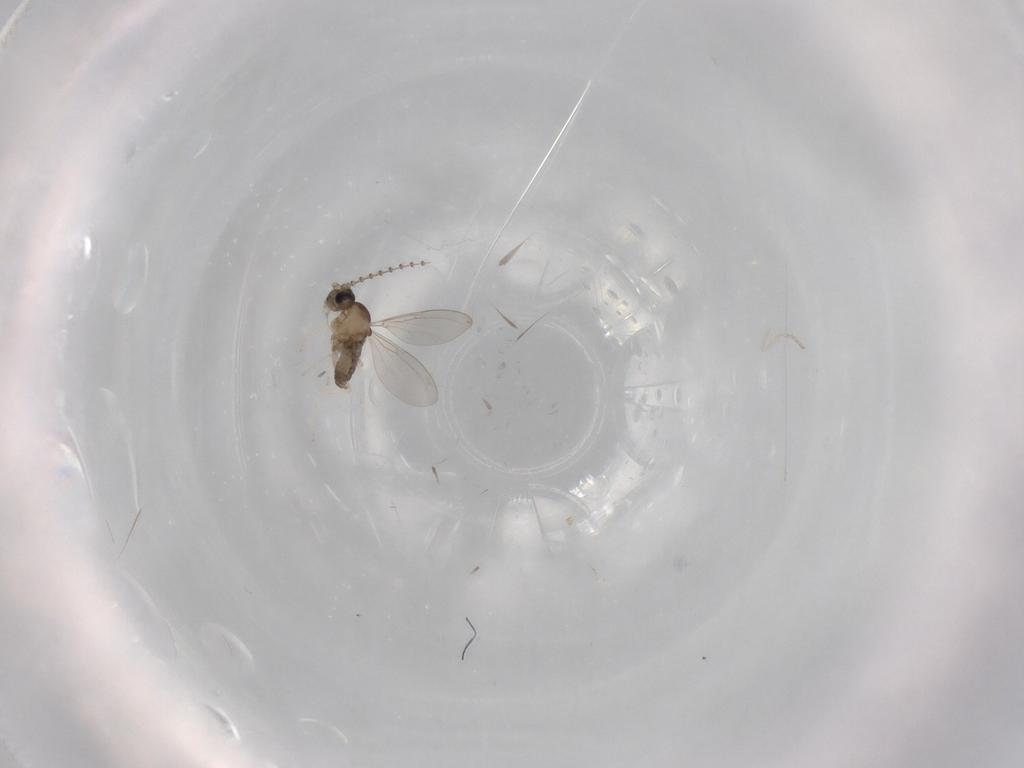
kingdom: Animalia
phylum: Arthropoda
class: Insecta
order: Diptera
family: Cecidomyiidae
